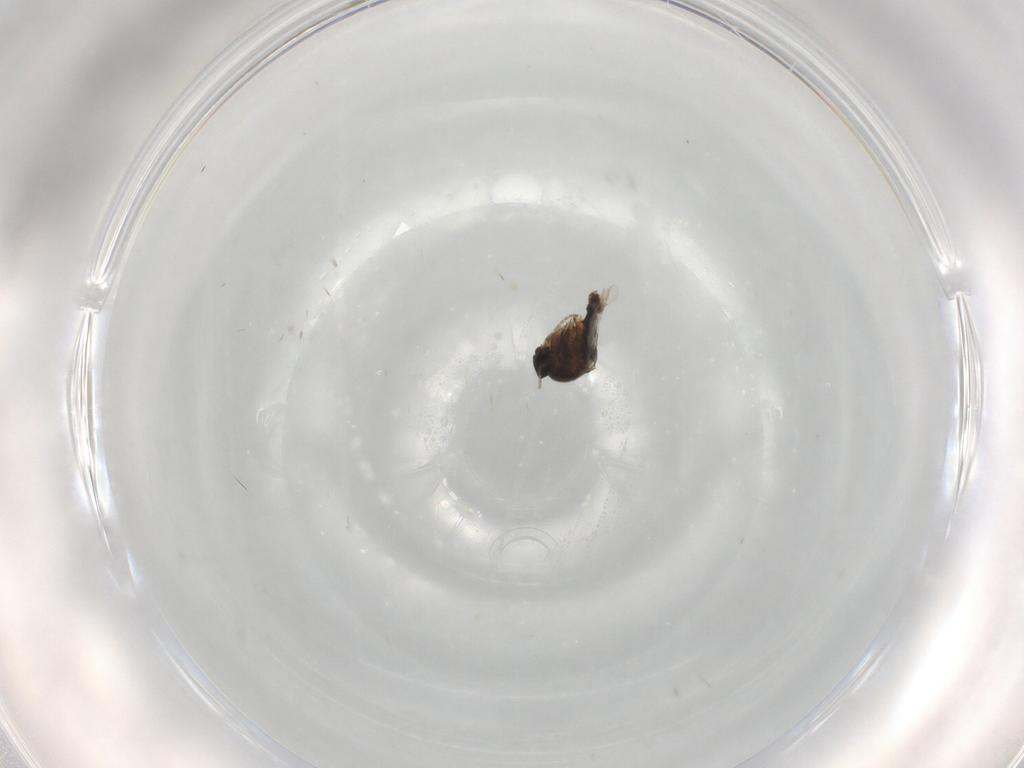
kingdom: Animalia
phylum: Arthropoda
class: Insecta
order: Diptera
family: Phoridae
